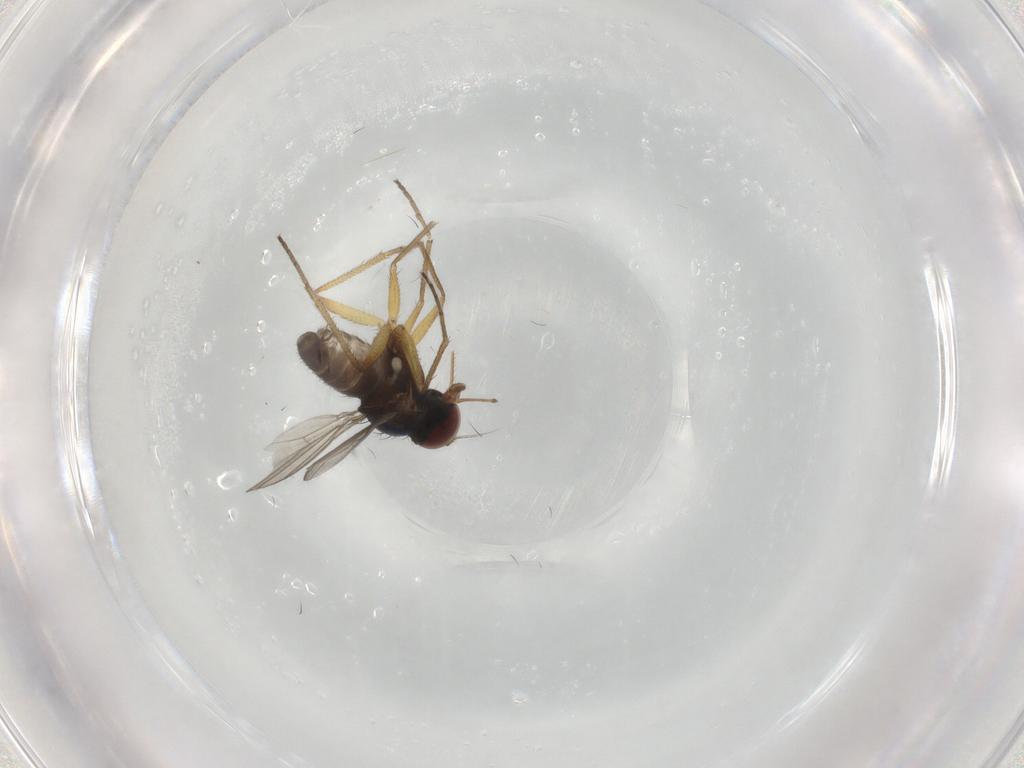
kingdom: Animalia
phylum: Arthropoda
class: Insecta
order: Diptera
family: Dolichopodidae
